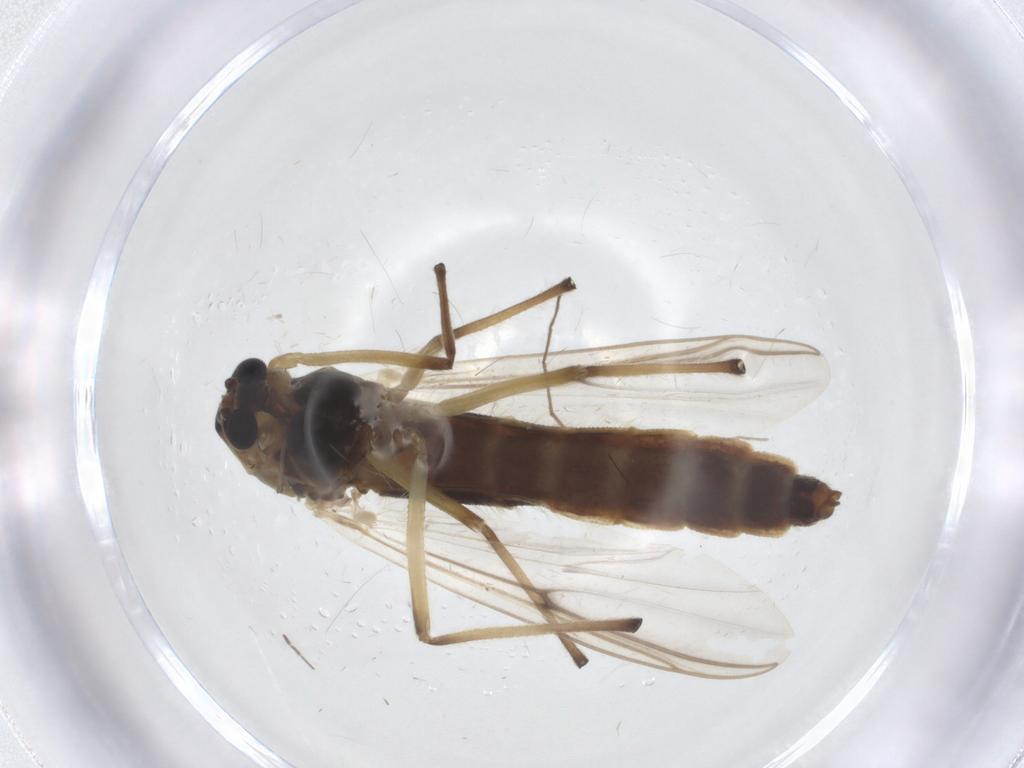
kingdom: Animalia
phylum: Arthropoda
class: Insecta
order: Diptera
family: Chironomidae
